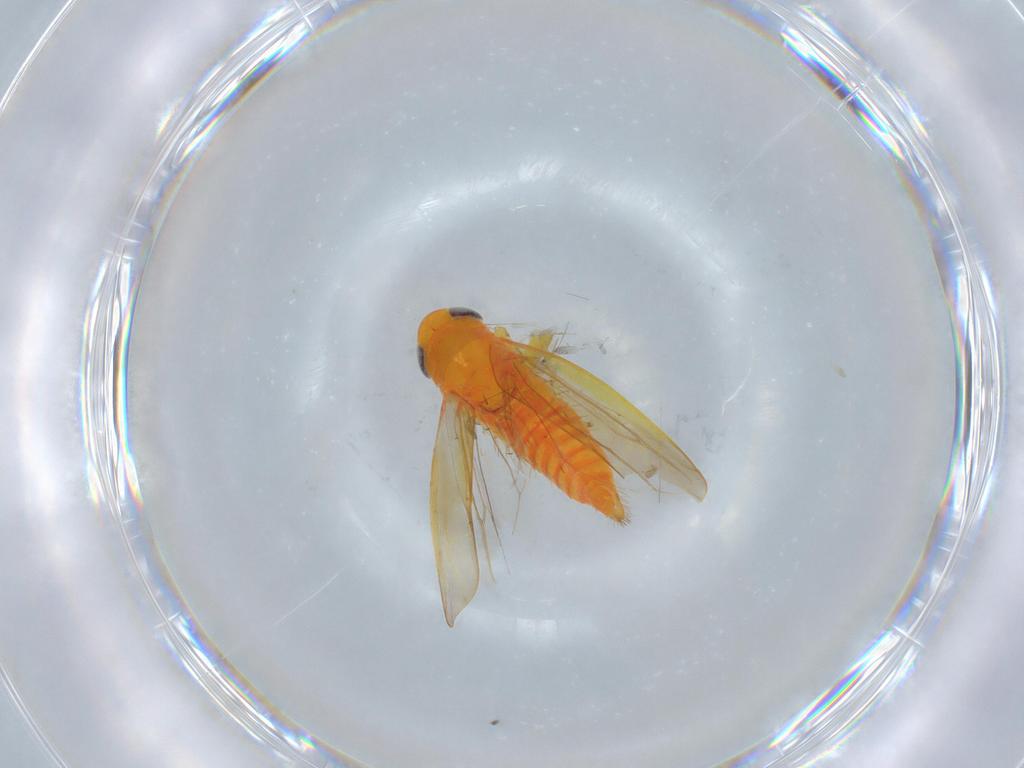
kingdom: Animalia
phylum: Arthropoda
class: Insecta
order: Hemiptera
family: Cicadellidae
